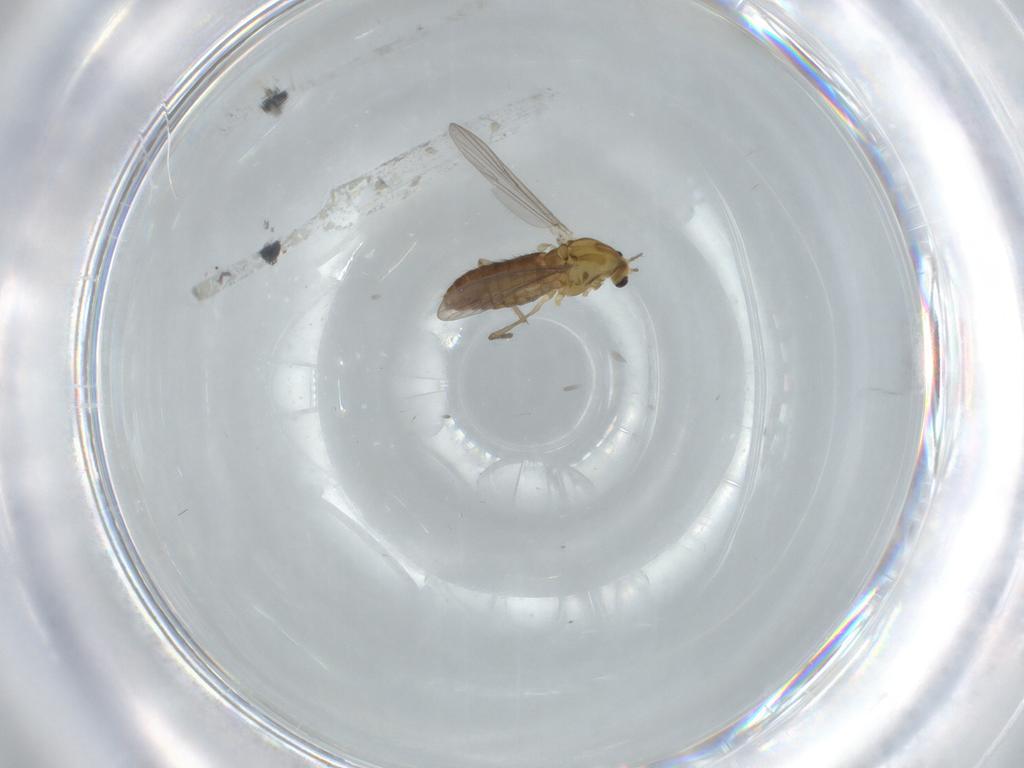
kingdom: Animalia
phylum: Arthropoda
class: Insecta
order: Diptera
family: Chironomidae
